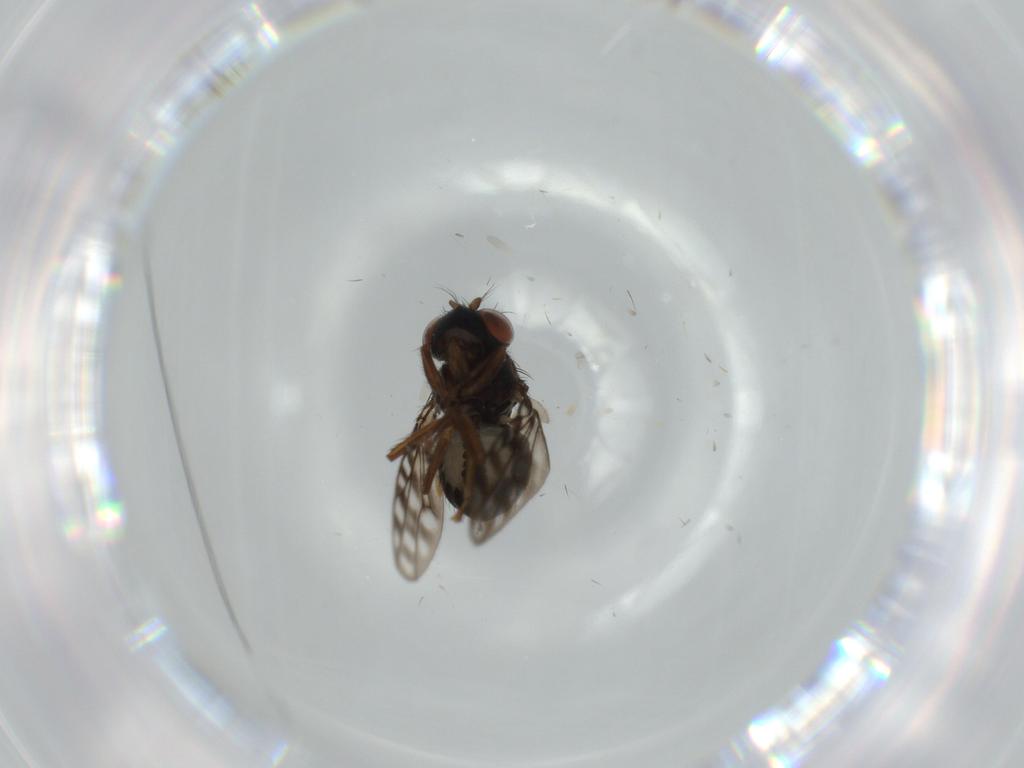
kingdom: Animalia
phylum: Arthropoda
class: Insecta
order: Diptera
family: Ephydridae
